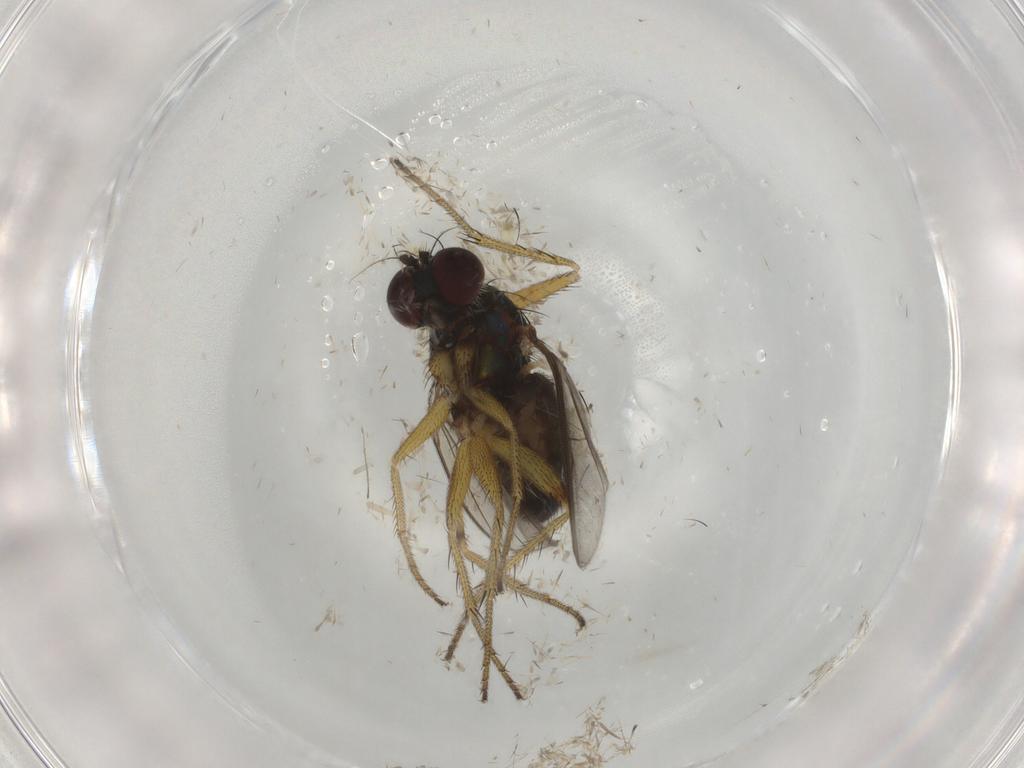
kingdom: Animalia
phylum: Arthropoda
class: Insecta
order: Diptera
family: Dolichopodidae
